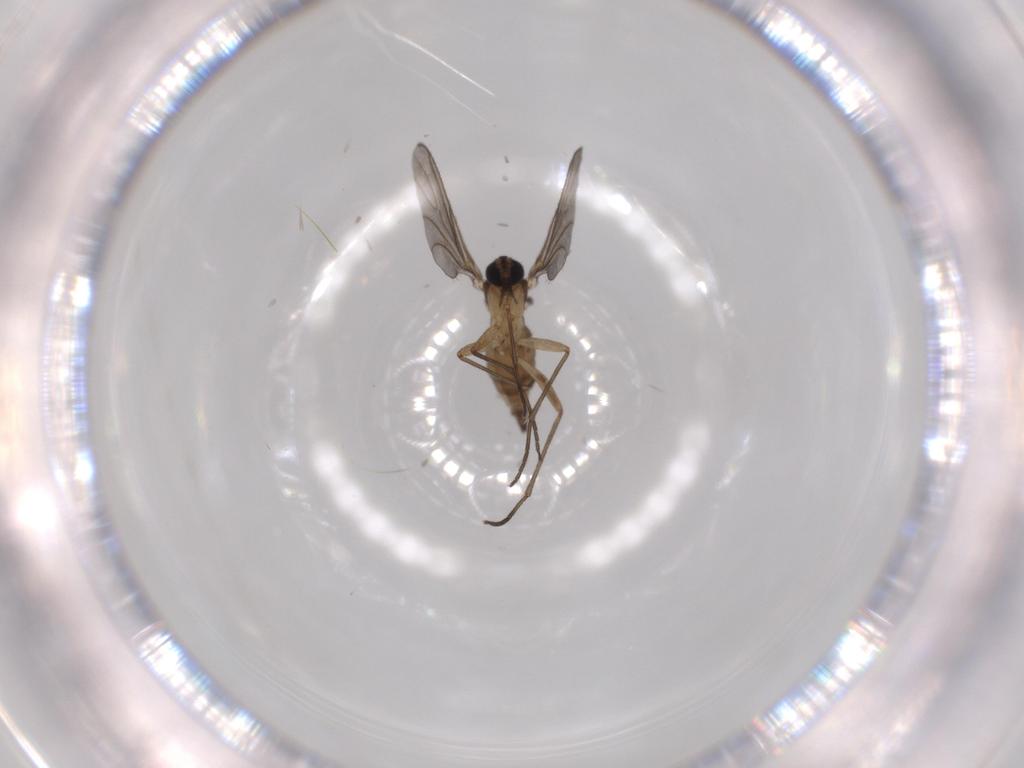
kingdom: Animalia
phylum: Arthropoda
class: Insecta
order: Diptera
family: Sciaridae
